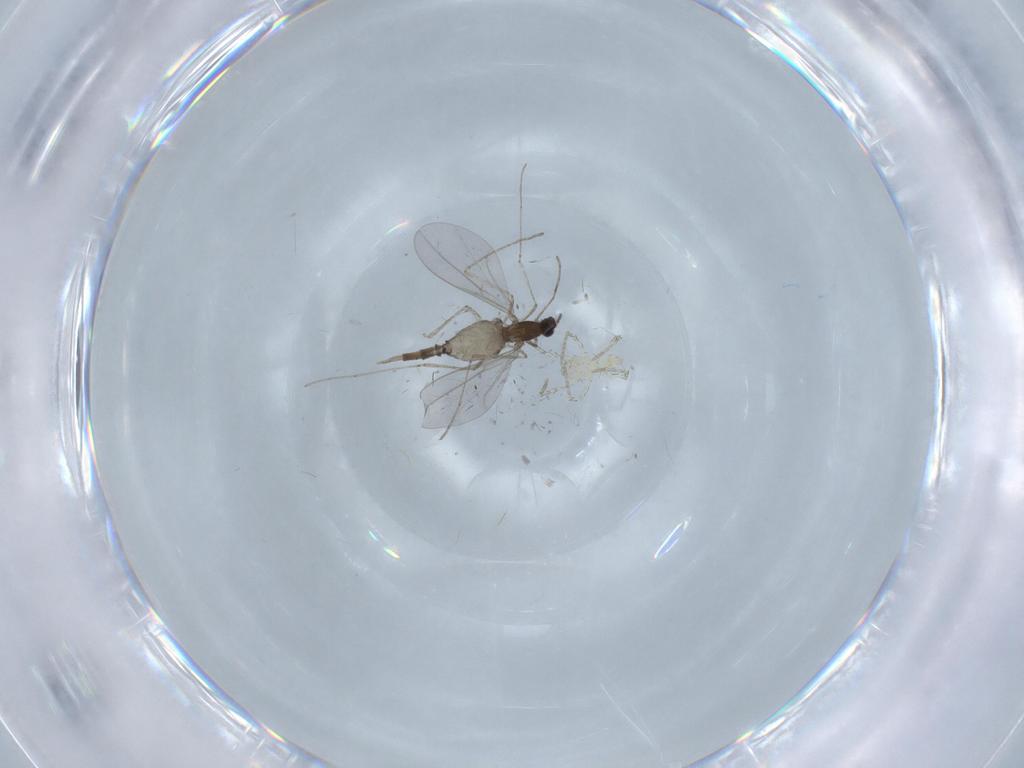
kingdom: Animalia
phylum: Arthropoda
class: Insecta
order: Diptera
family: Cecidomyiidae
